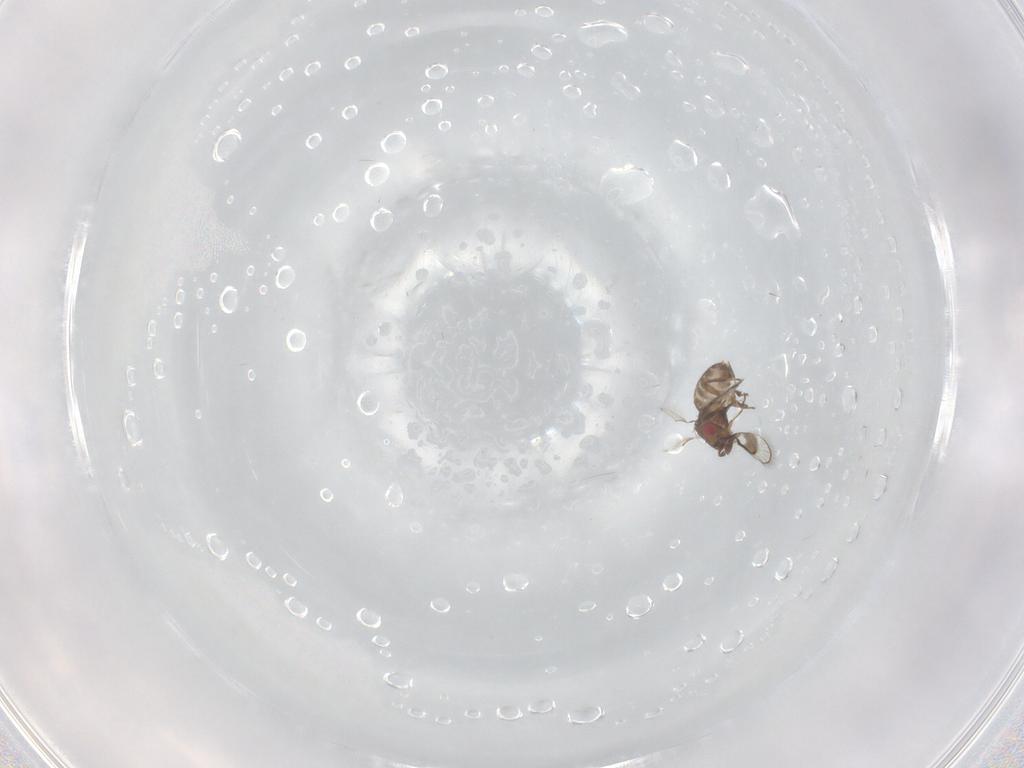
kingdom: Animalia
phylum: Arthropoda
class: Insecta
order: Hymenoptera
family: Trichogrammatidae
